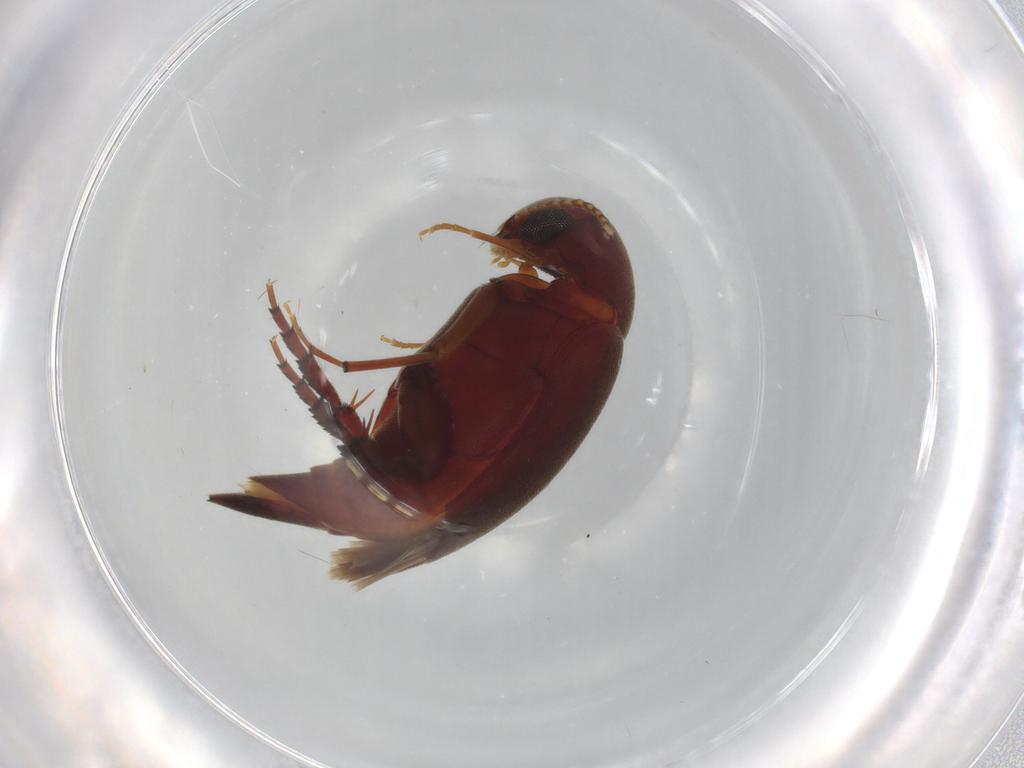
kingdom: Animalia
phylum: Arthropoda
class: Insecta
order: Coleoptera
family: Mordellidae
